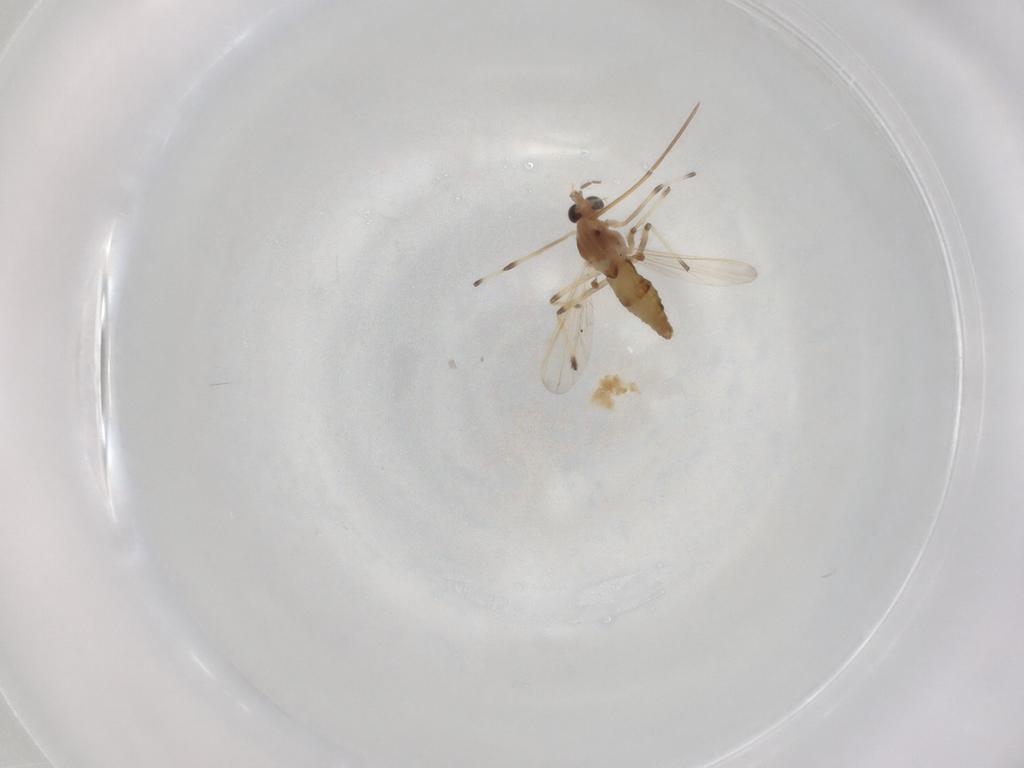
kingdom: Animalia
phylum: Arthropoda
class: Insecta
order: Diptera
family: Chironomidae
